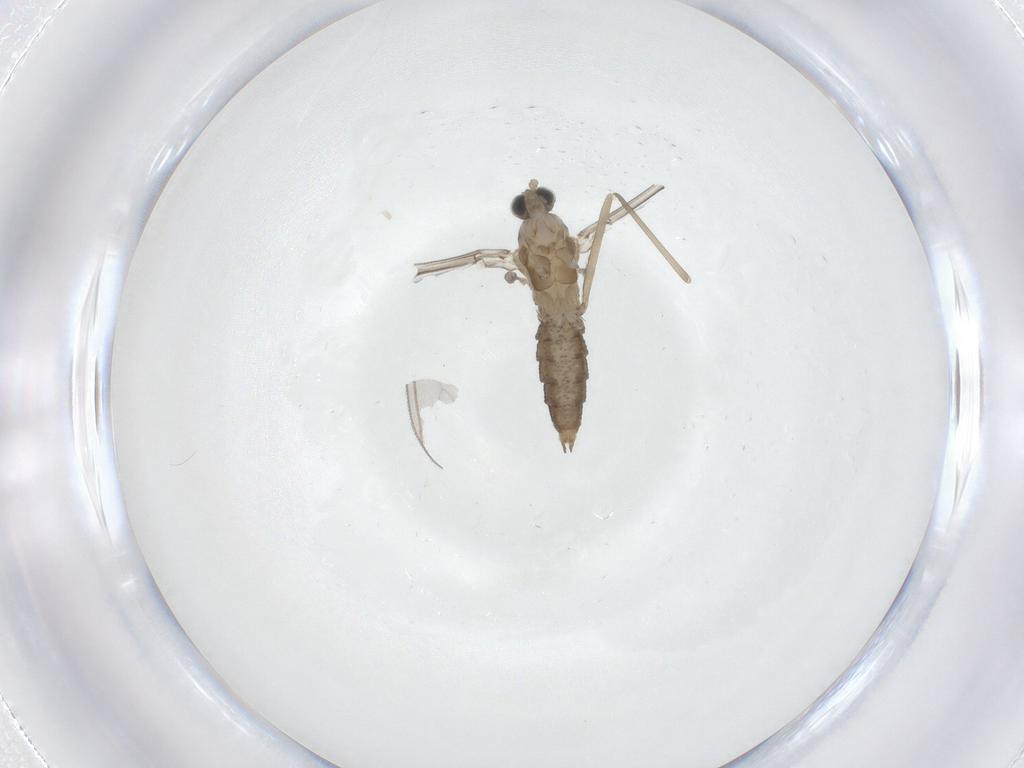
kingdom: Animalia
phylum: Arthropoda
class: Insecta
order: Diptera
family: Cecidomyiidae
